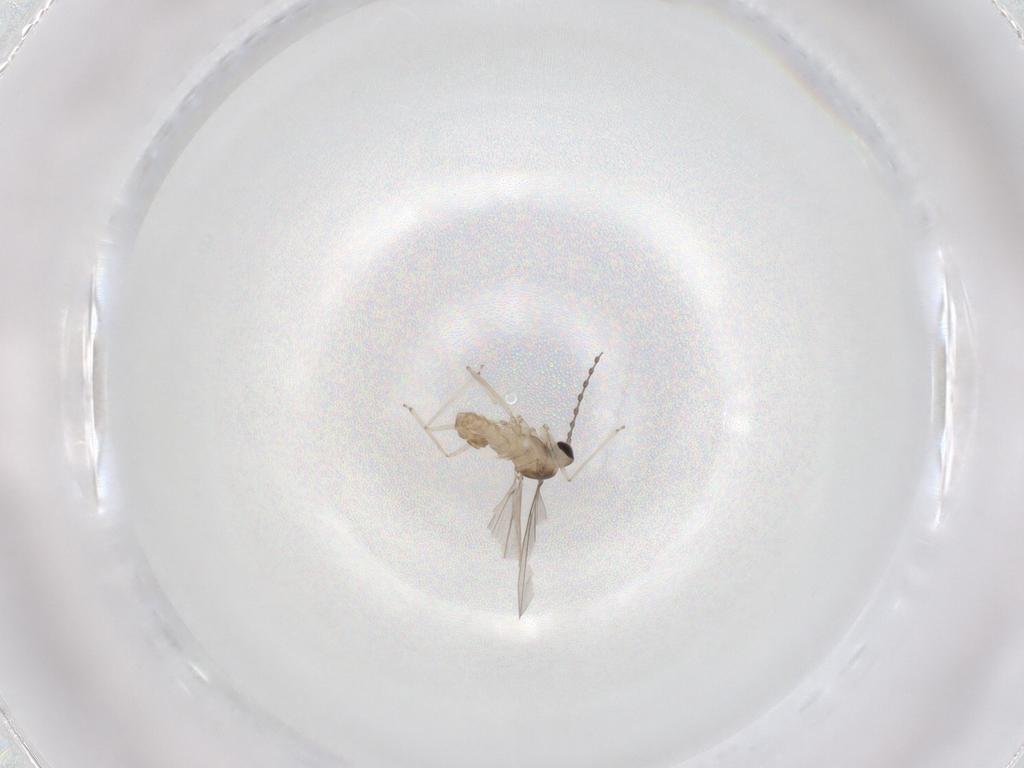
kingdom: Animalia
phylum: Arthropoda
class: Insecta
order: Diptera
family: Cecidomyiidae
